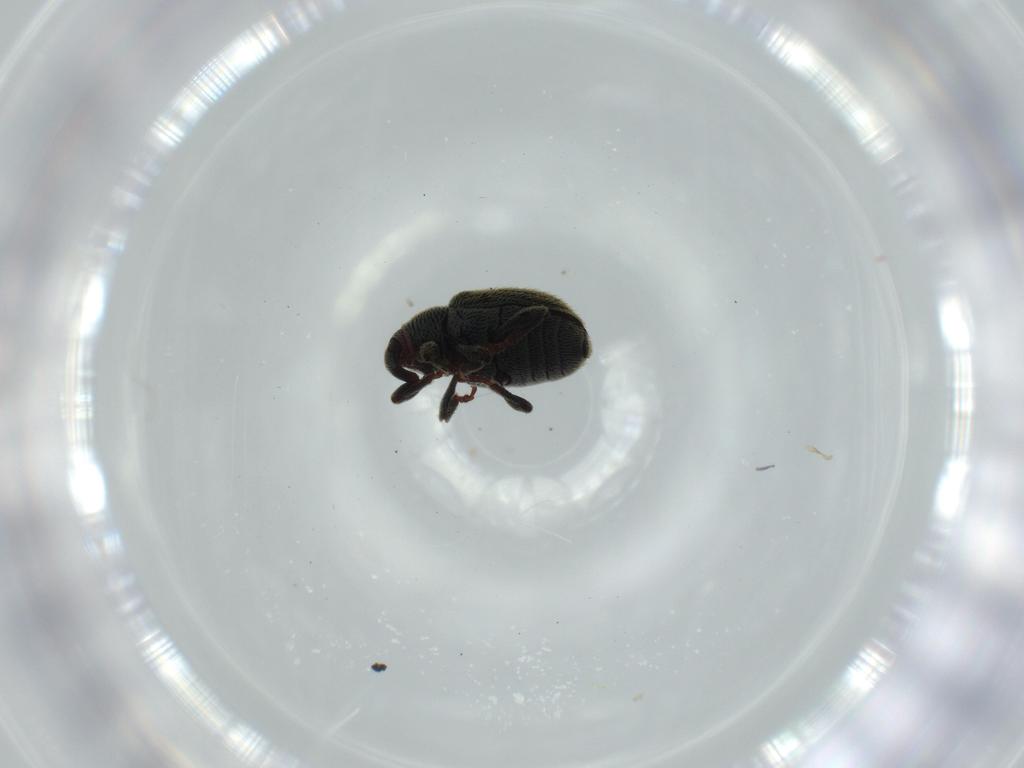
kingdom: Animalia
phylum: Arthropoda
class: Insecta
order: Coleoptera
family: Curculionidae
